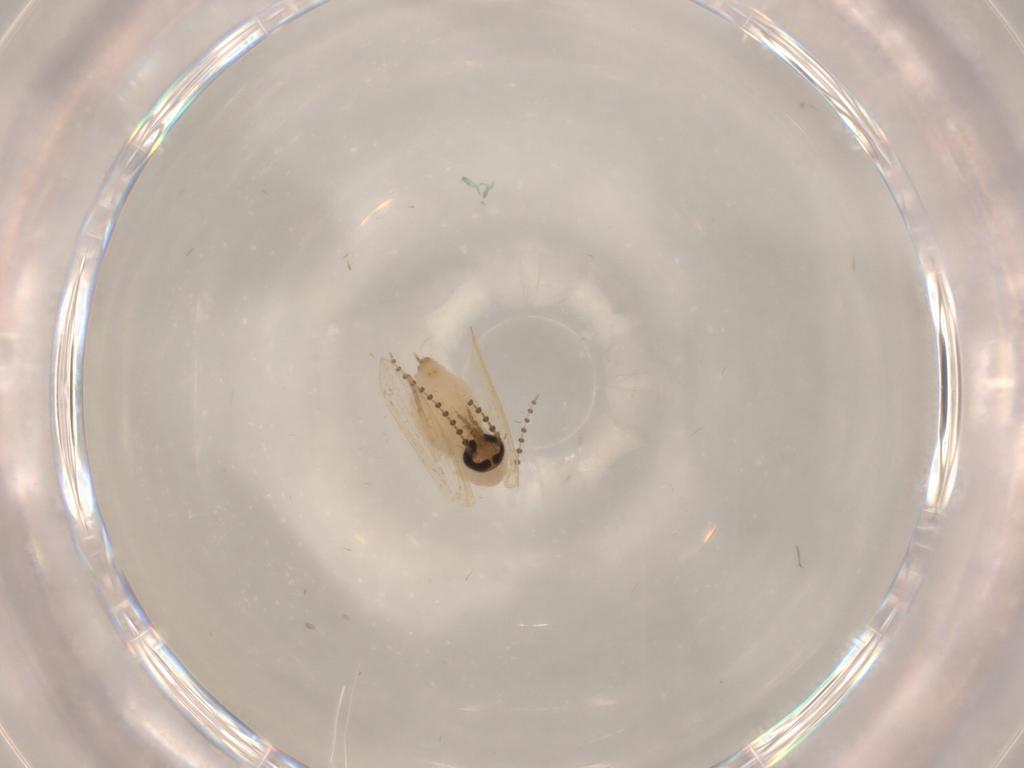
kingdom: Animalia
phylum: Arthropoda
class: Insecta
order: Diptera
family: Psychodidae
